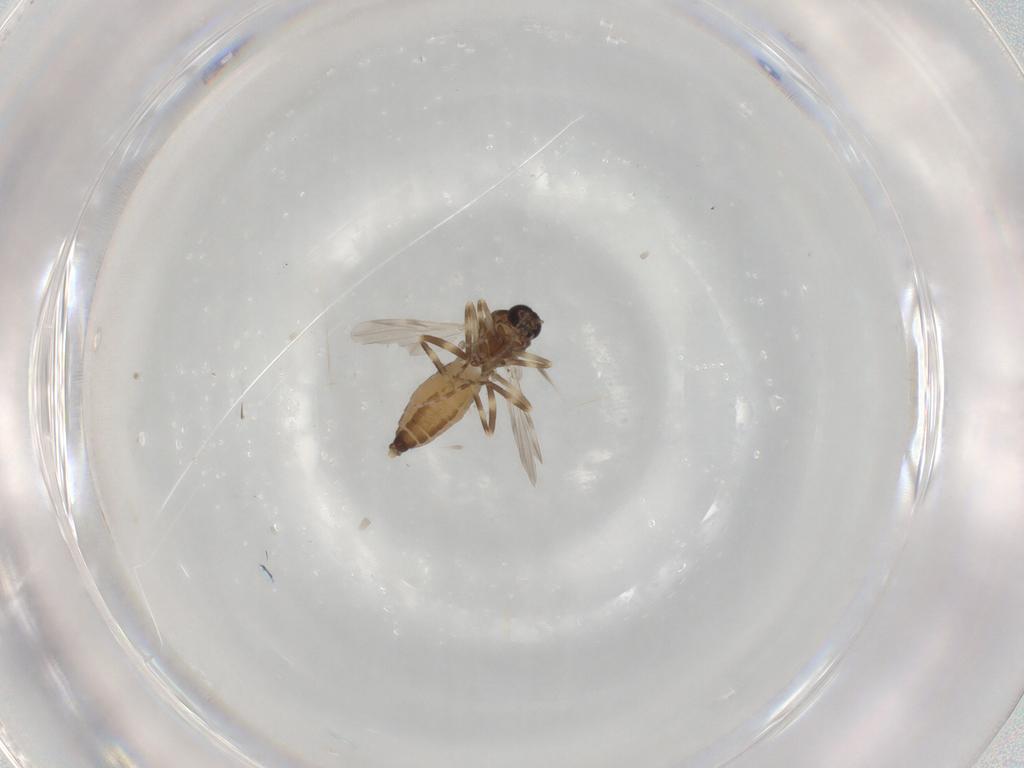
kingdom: Animalia
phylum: Arthropoda
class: Insecta
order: Diptera
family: Ceratopogonidae
